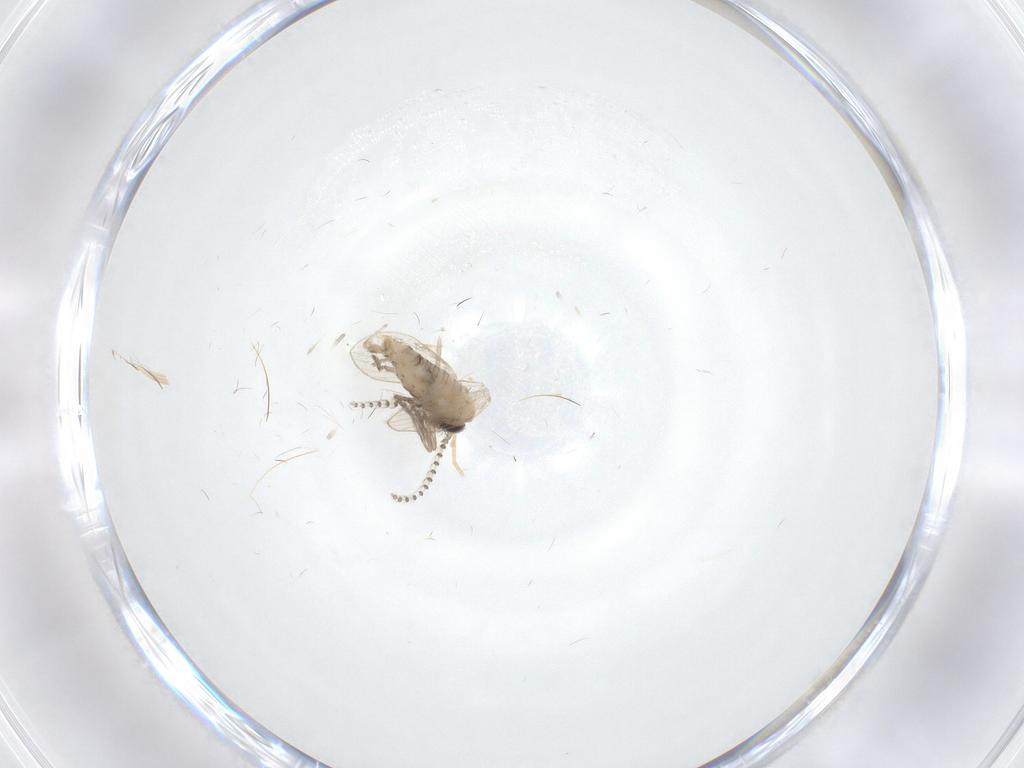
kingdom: Animalia
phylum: Arthropoda
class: Insecta
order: Diptera
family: Psychodidae
